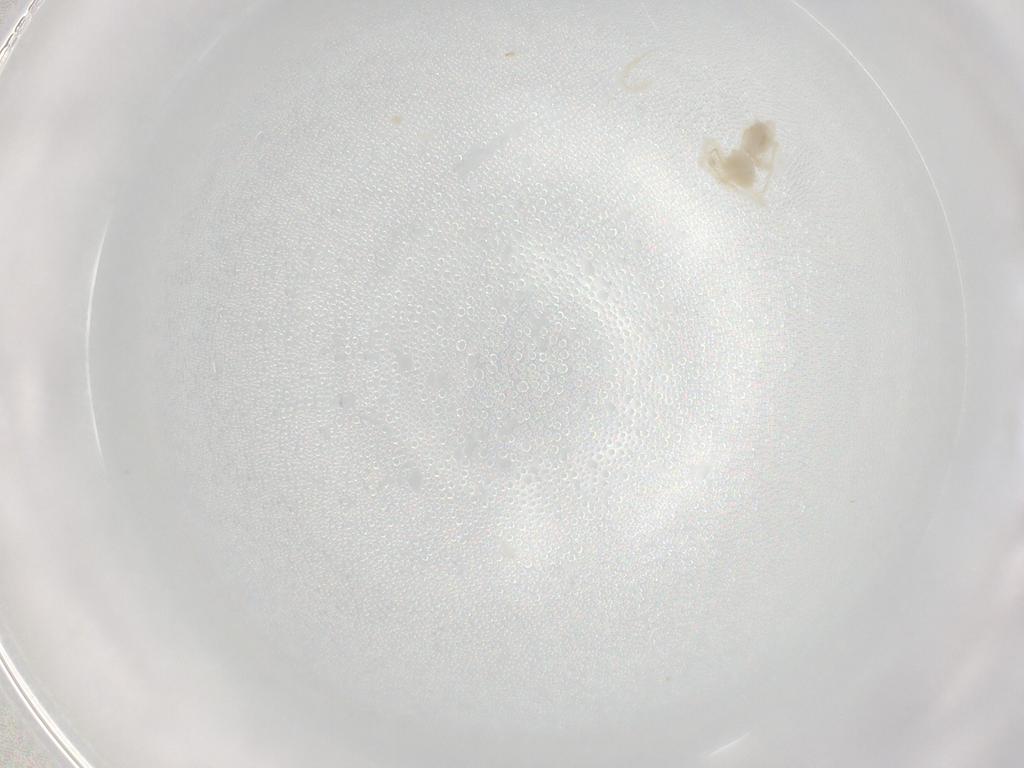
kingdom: Animalia
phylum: Arthropoda
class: Arachnida
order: Trombidiformes
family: Anystidae
